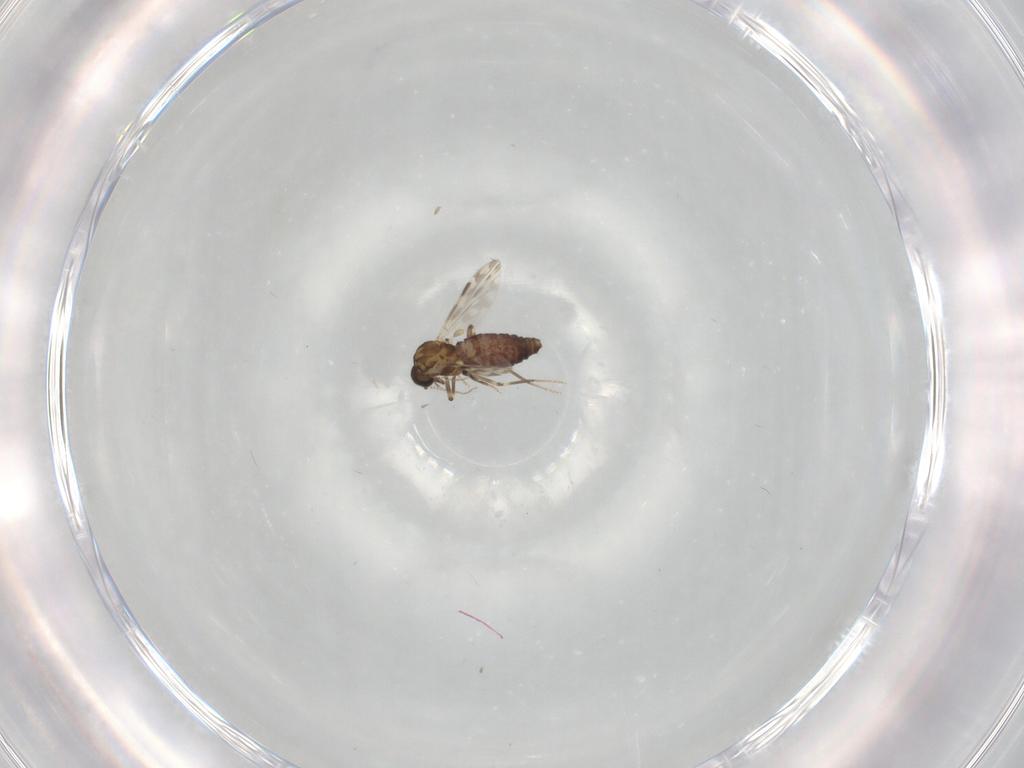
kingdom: Animalia
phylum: Arthropoda
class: Insecta
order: Diptera
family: Ceratopogonidae
